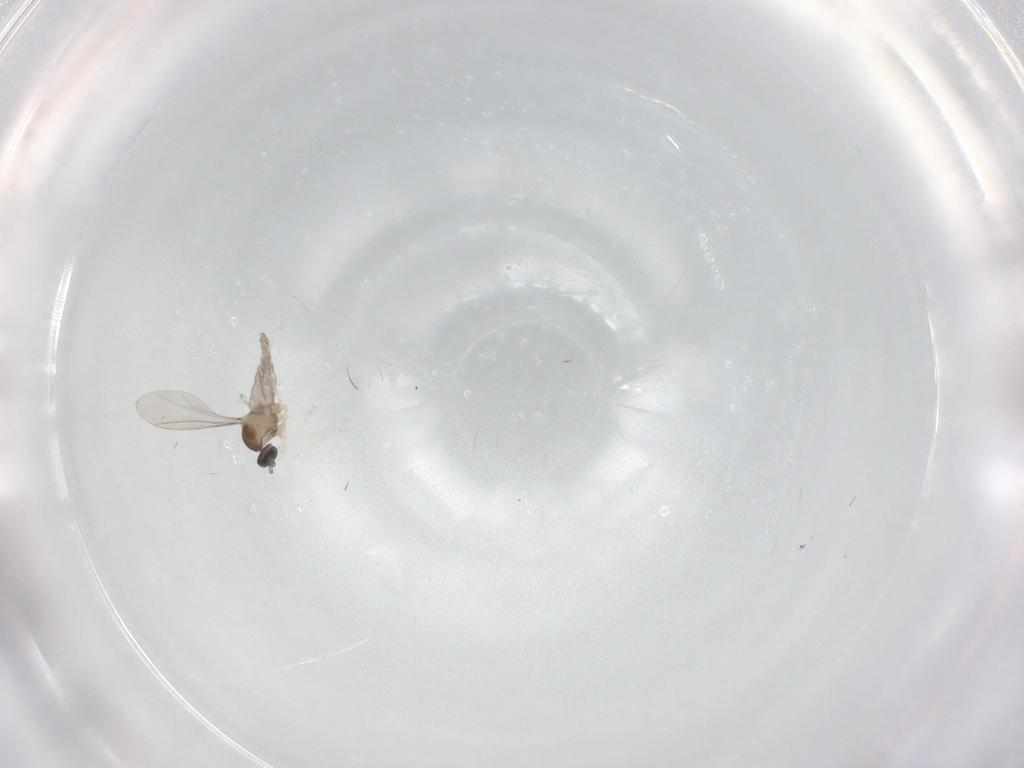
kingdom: Animalia
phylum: Arthropoda
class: Insecta
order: Diptera
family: Cecidomyiidae
